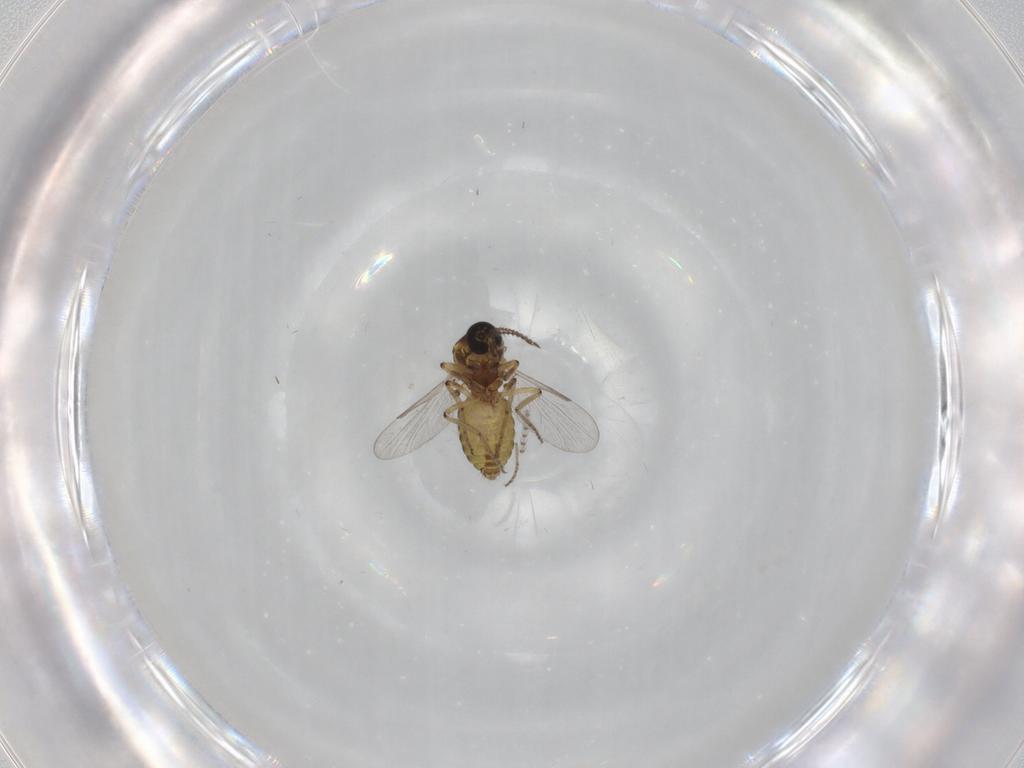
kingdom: Animalia
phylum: Arthropoda
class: Insecta
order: Diptera
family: Ceratopogonidae
